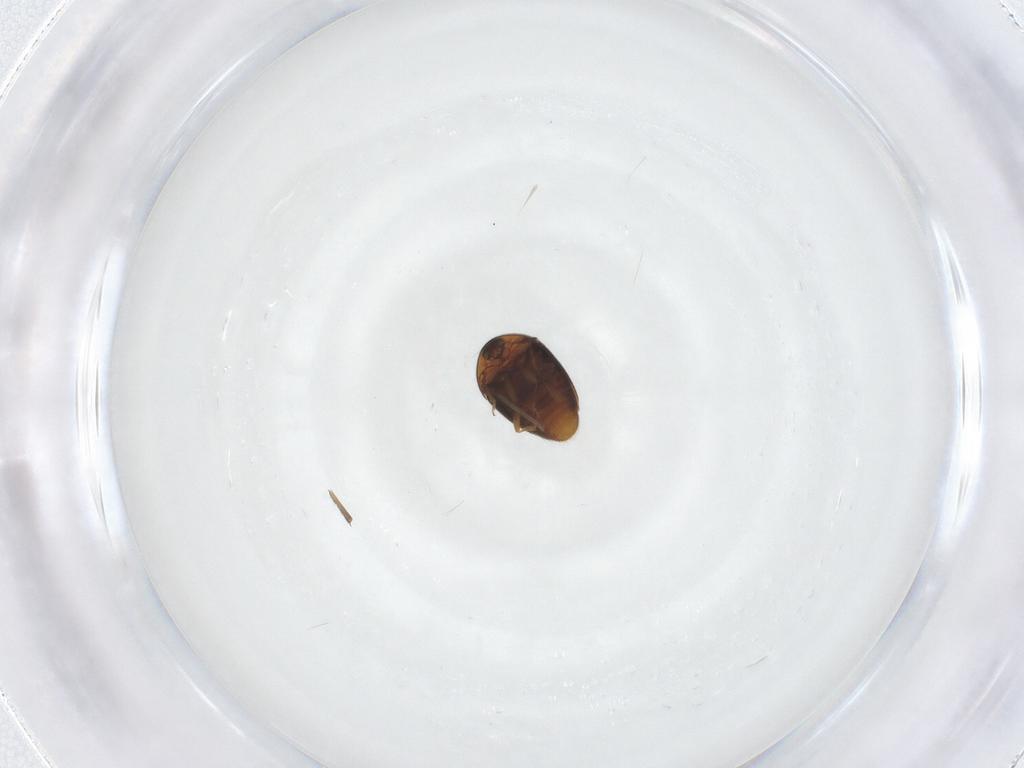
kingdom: Animalia
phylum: Arthropoda
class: Insecta
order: Coleoptera
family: Corylophidae
